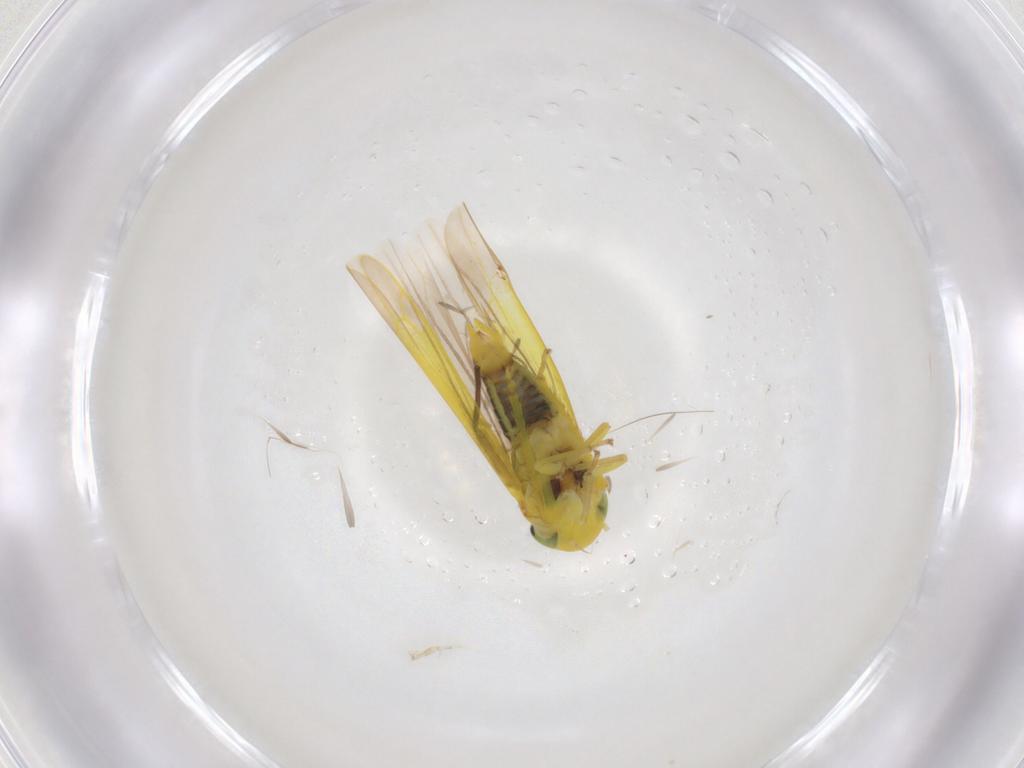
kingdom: Animalia
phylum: Arthropoda
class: Insecta
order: Hemiptera
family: Cicadellidae
